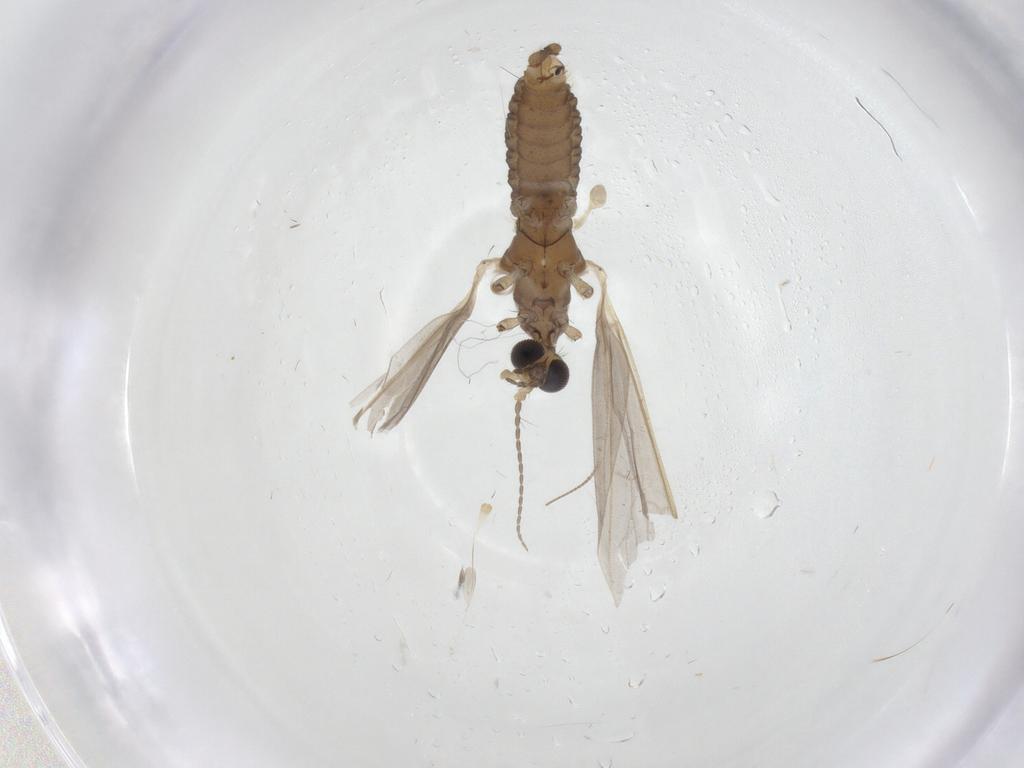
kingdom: Animalia
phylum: Arthropoda
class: Insecta
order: Diptera
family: Limoniidae
